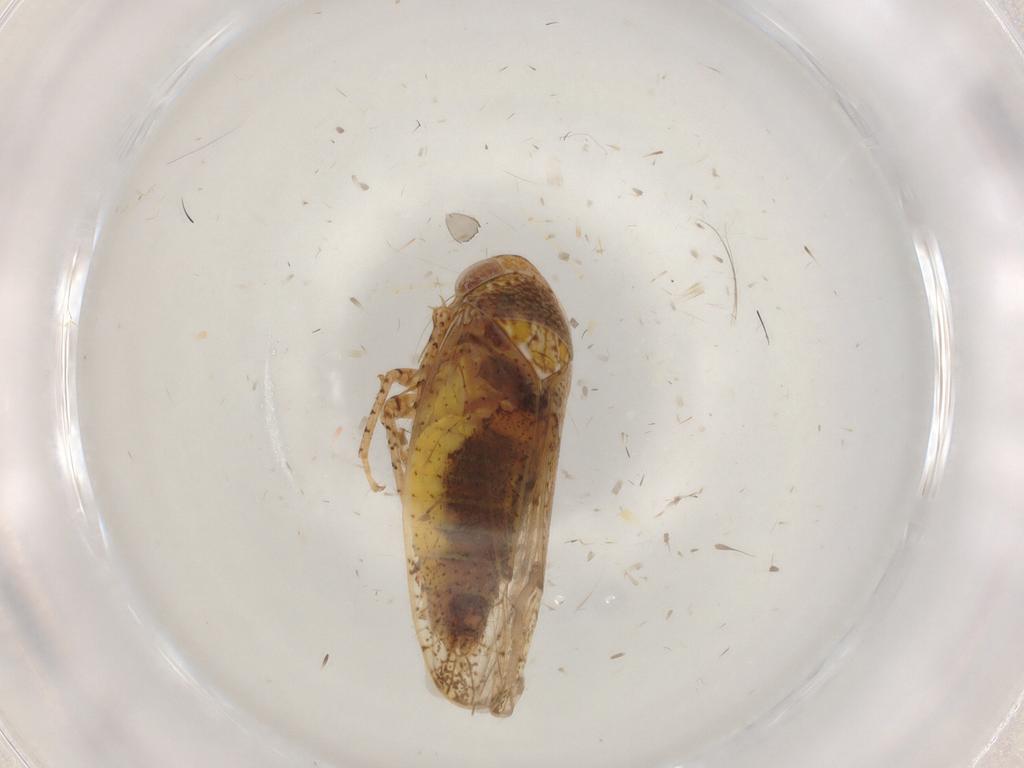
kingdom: Animalia
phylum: Arthropoda
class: Insecta
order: Hemiptera
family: Cicadellidae
